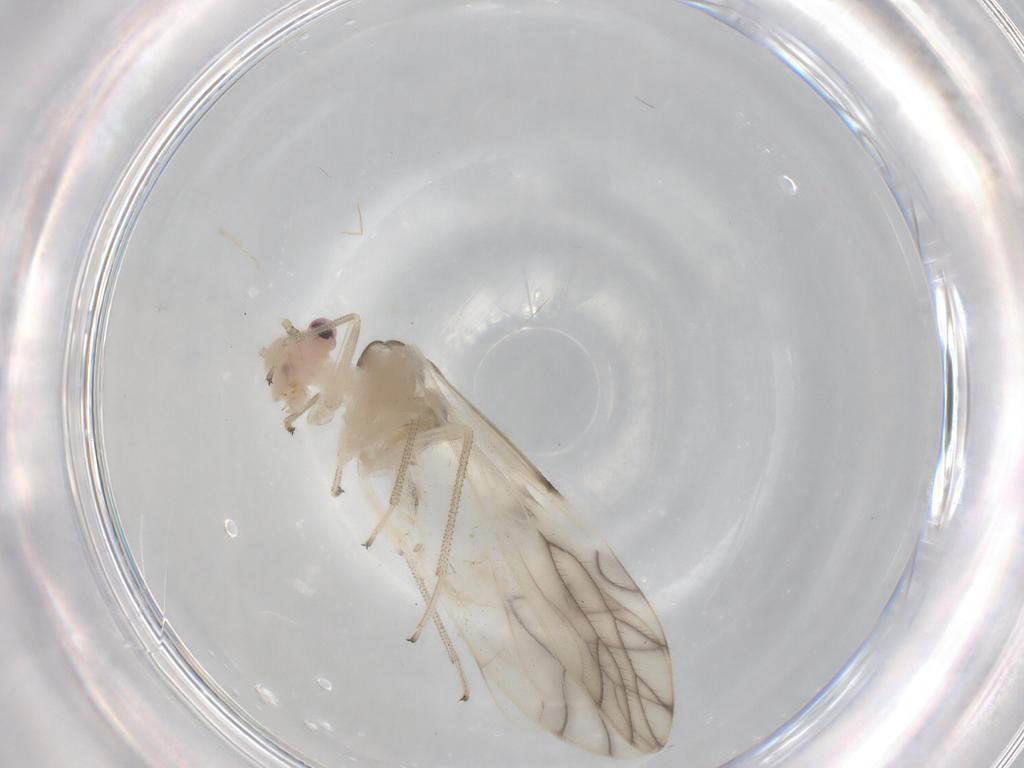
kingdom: Animalia
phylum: Arthropoda
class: Insecta
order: Psocodea
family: Caeciliusidae
